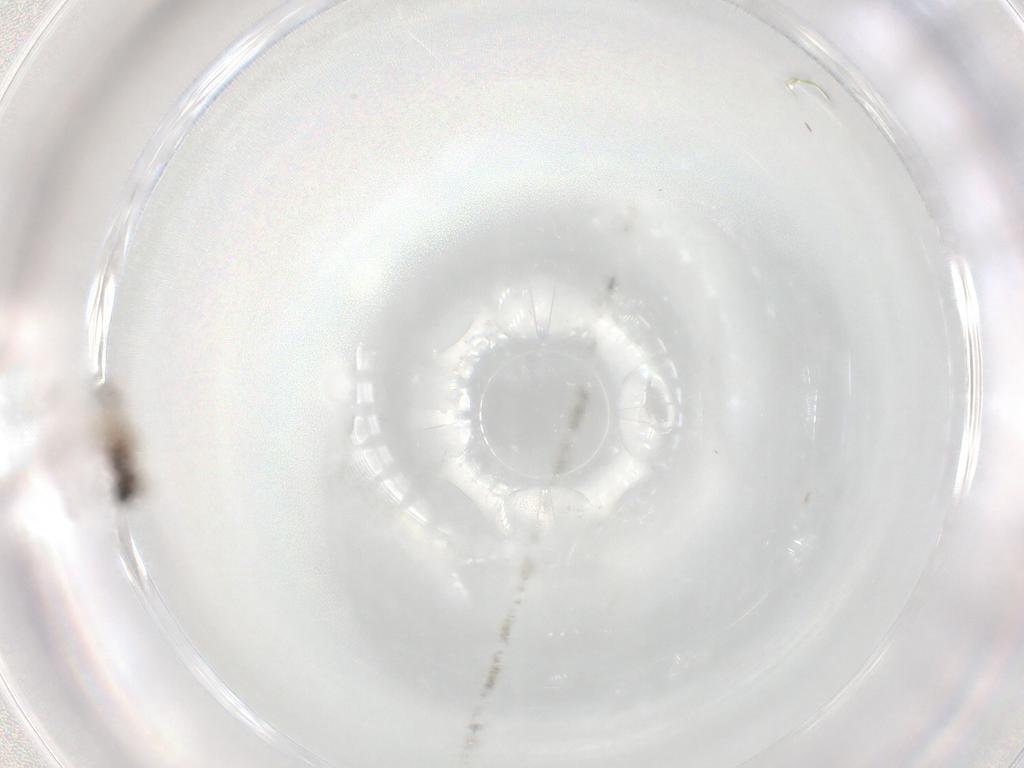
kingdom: Animalia
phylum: Arthropoda
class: Insecta
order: Diptera
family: Cecidomyiidae
